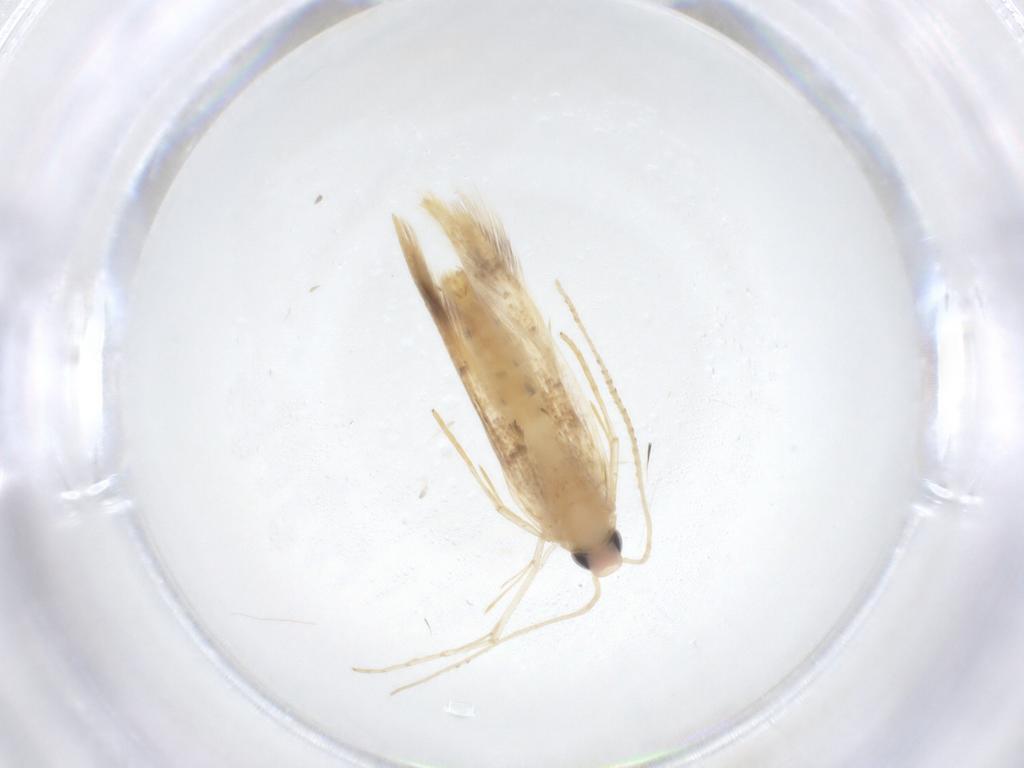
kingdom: Animalia
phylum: Arthropoda
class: Insecta
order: Lepidoptera
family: Oecophoridae
